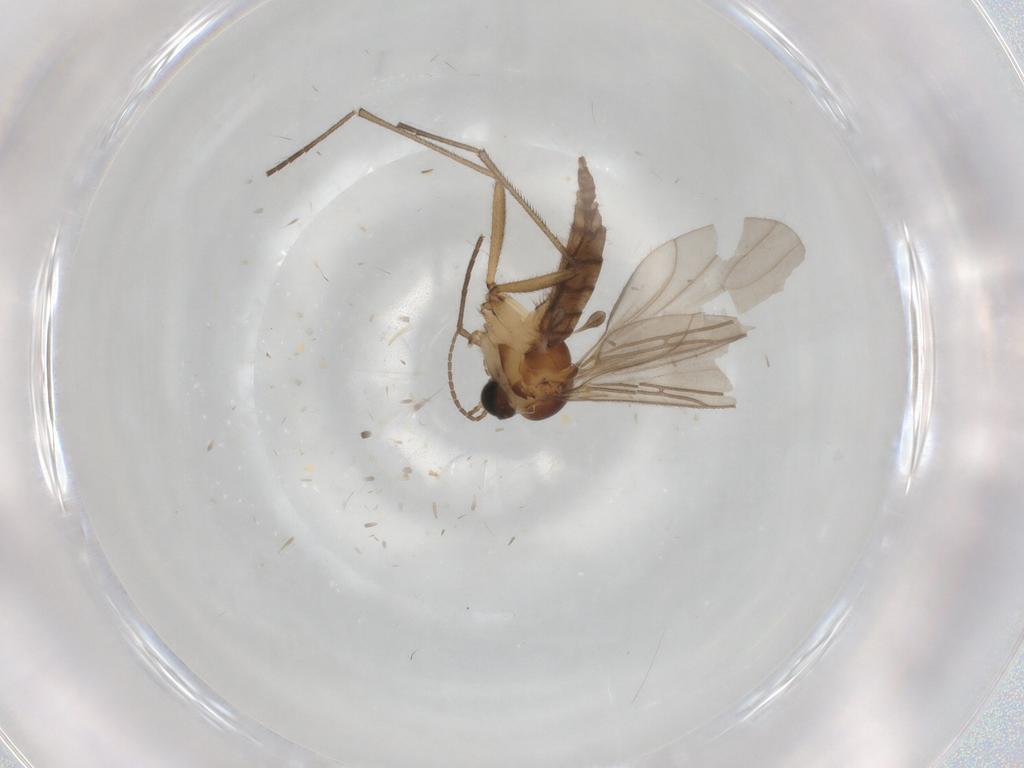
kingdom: Animalia
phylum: Arthropoda
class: Insecta
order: Diptera
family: Sciaridae
